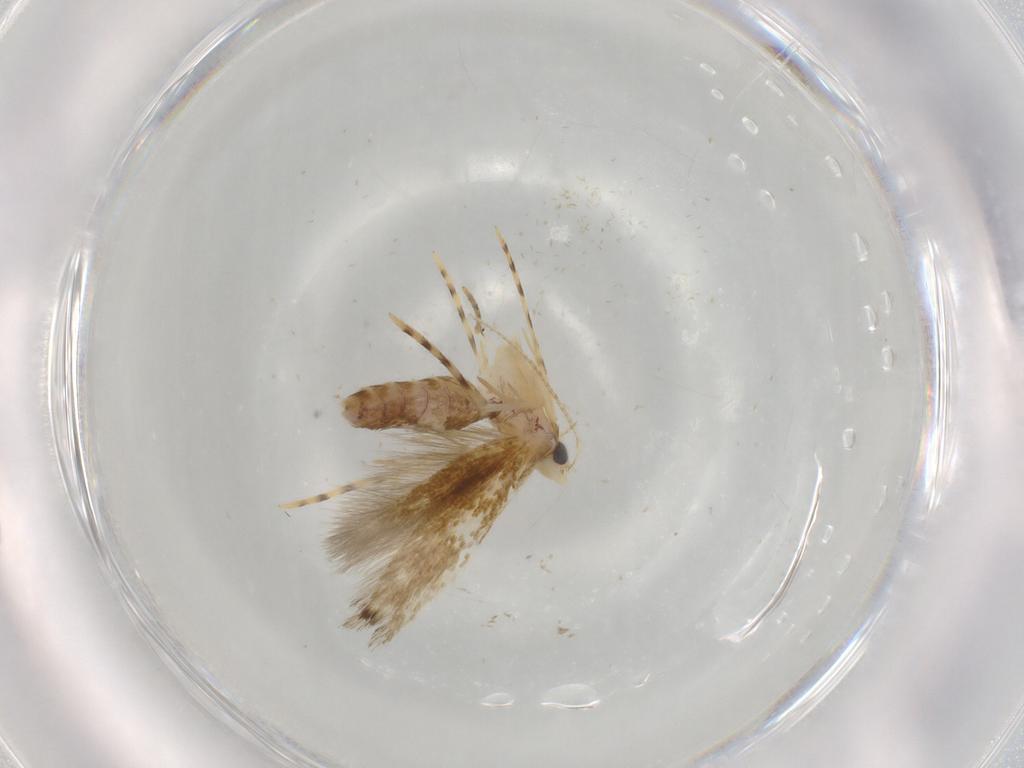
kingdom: Animalia
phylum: Arthropoda
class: Insecta
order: Lepidoptera
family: Lyonetiidae
